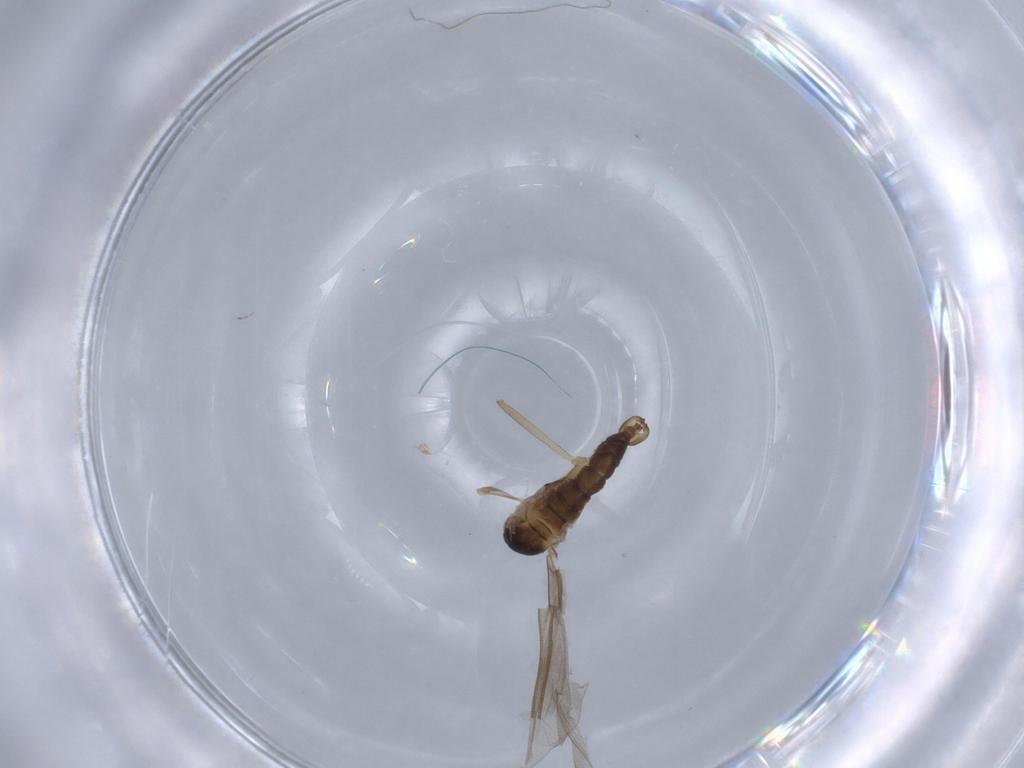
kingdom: Animalia
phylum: Arthropoda
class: Insecta
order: Diptera
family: Cecidomyiidae
